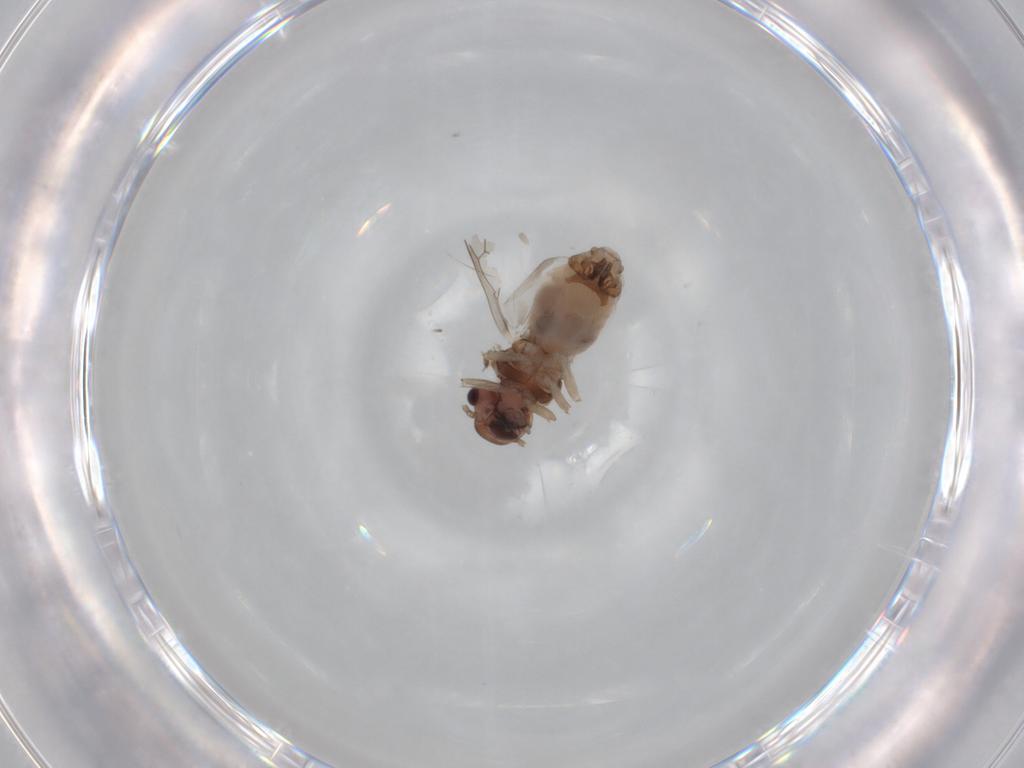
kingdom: Animalia
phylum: Arthropoda
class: Insecta
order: Psocodea
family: Peripsocidae
